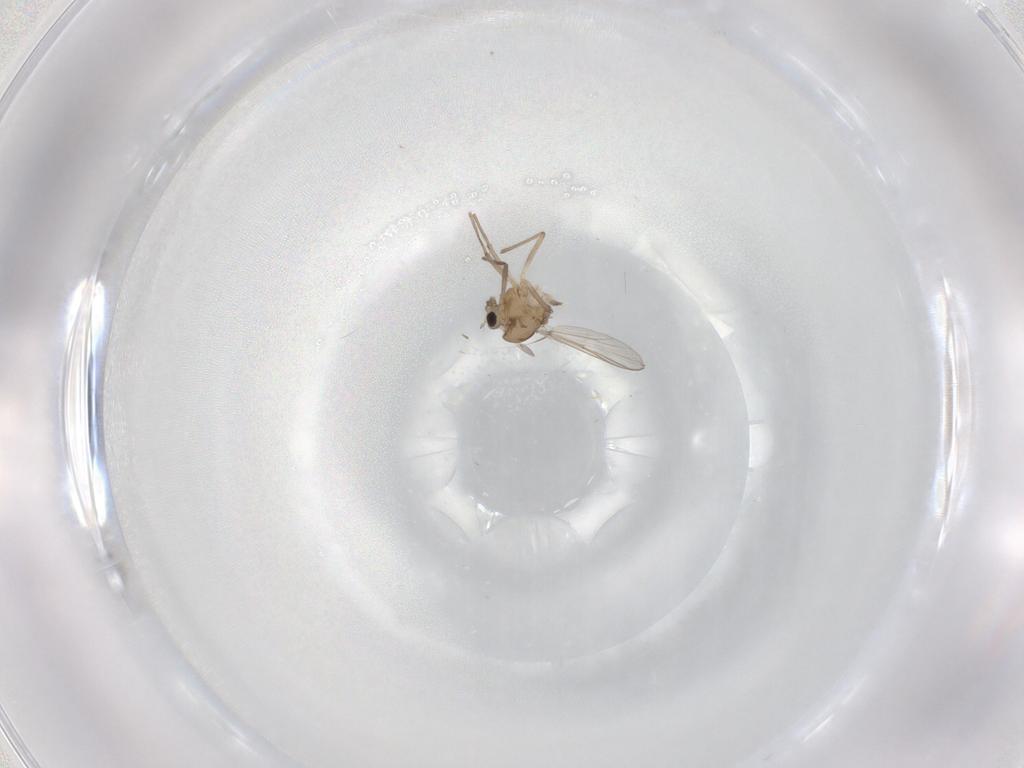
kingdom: Animalia
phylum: Arthropoda
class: Insecta
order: Diptera
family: Chironomidae
